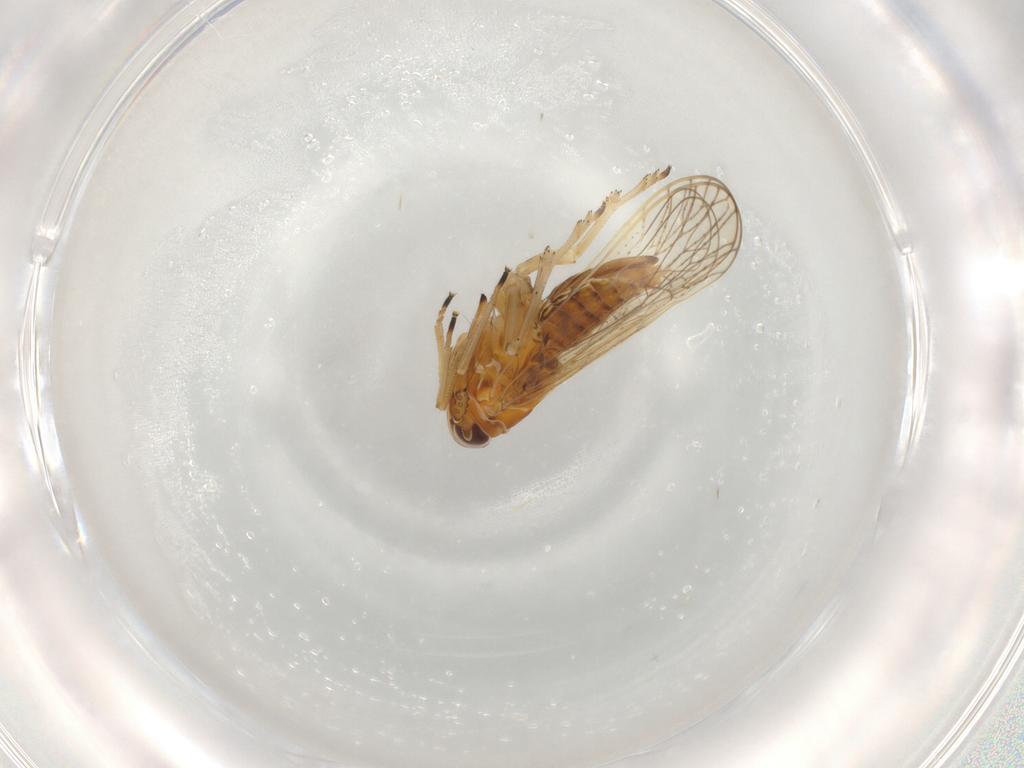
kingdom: Animalia
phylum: Arthropoda
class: Insecta
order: Hemiptera
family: Delphacidae
